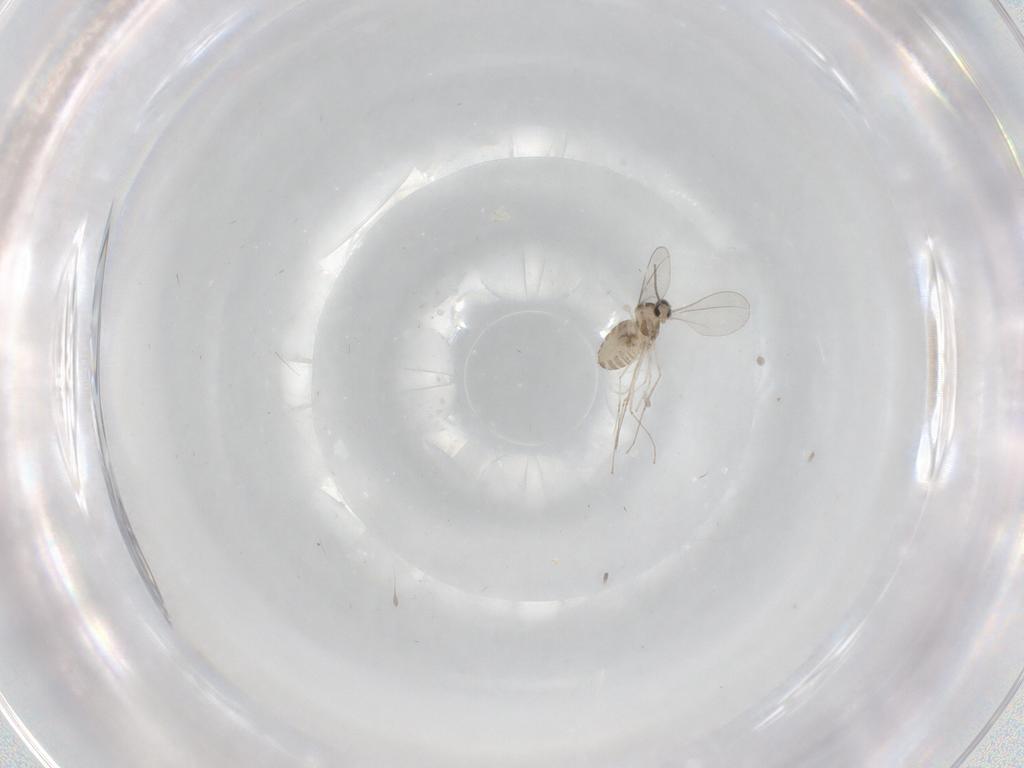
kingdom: Animalia
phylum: Arthropoda
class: Insecta
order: Diptera
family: Cecidomyiidae
